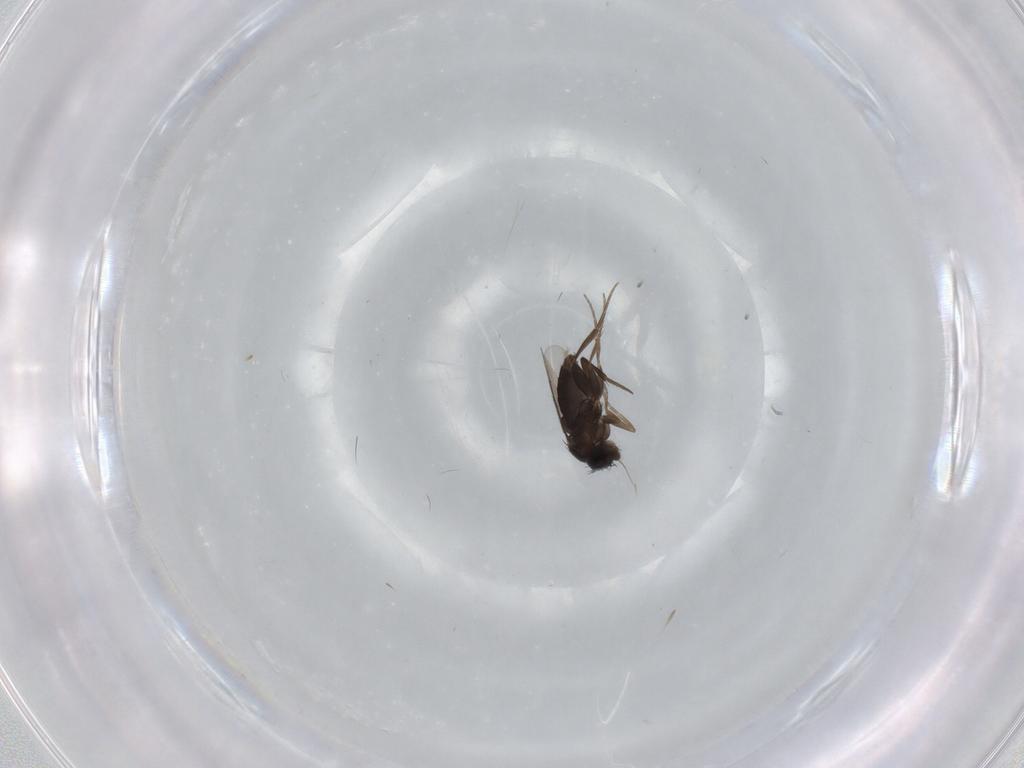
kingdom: Animalia
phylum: Arthropoda
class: Insecta
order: Diptera
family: Phoridae
